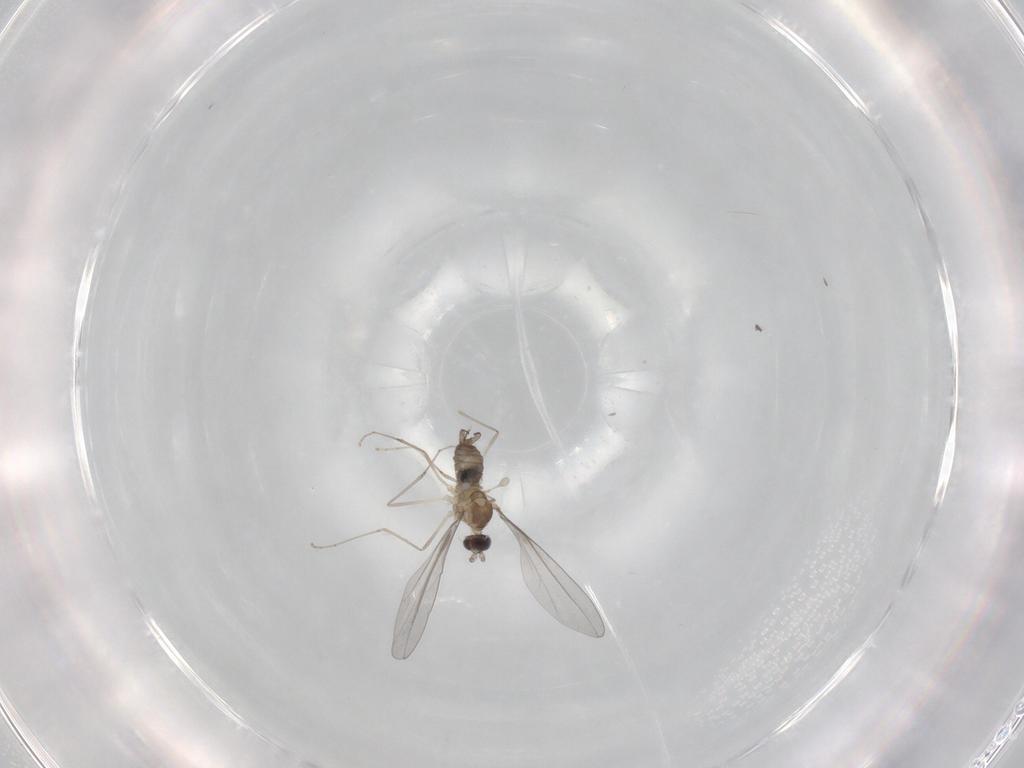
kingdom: Animalia
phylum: Arthropoda
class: Insecta
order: Diptera
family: Cecidomyiidae
